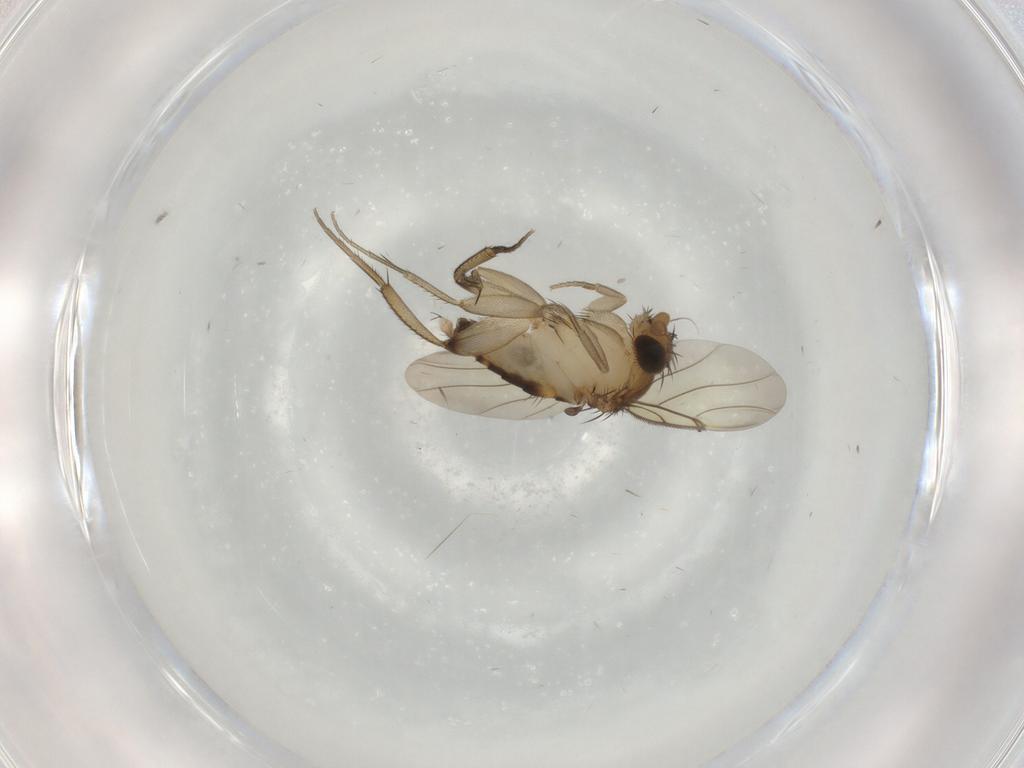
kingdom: Animalia
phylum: Arthropoda
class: Insecta
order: Diptera
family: Phoridae
